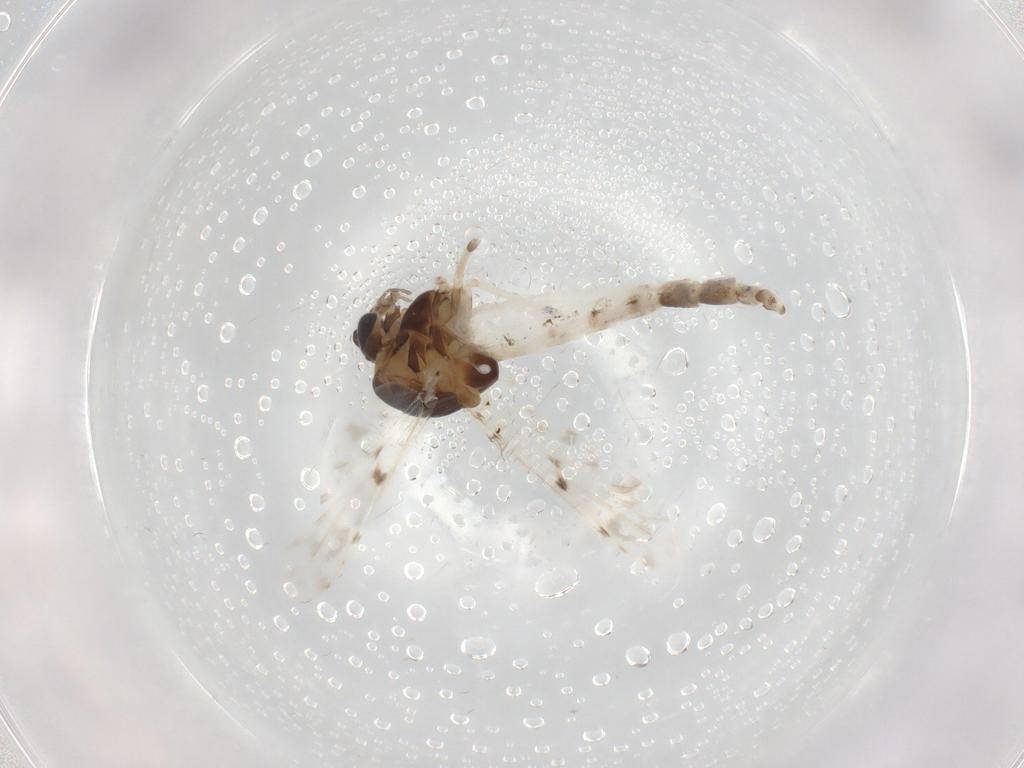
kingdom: Animalia
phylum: Arthropoda
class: Insecta
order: Diptera
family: Chironomidae
